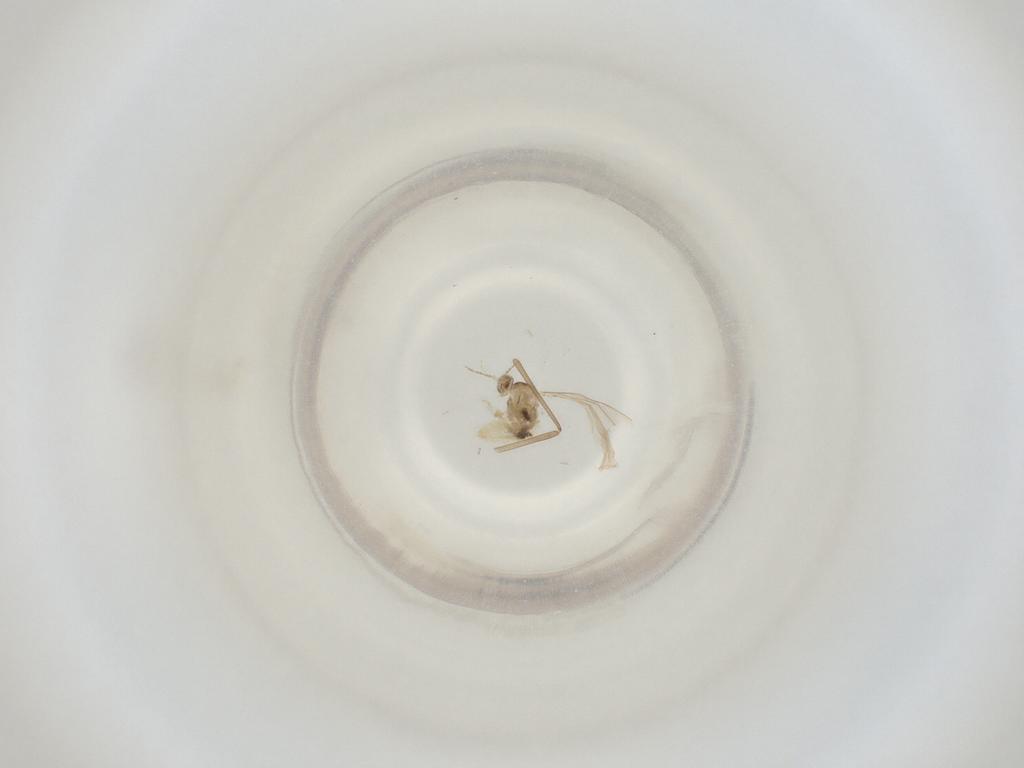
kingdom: Animalia
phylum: Arthropoda
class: Insecta
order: Diptera
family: Cecidomyiidae
